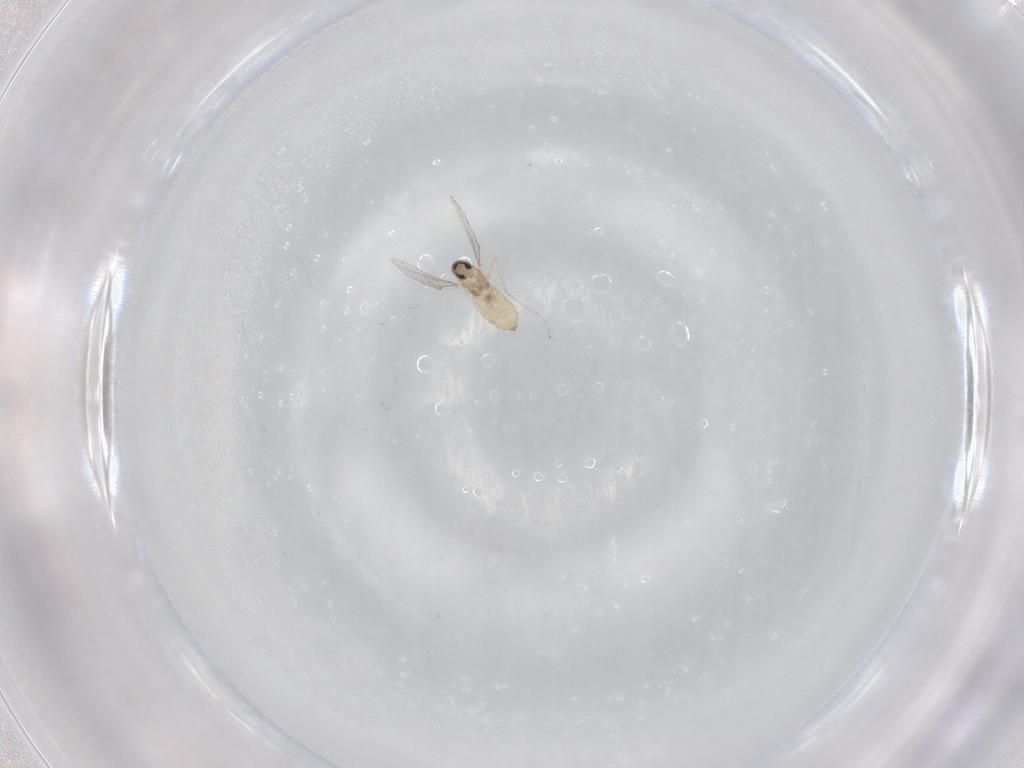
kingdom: Animalia
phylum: Arthropoda
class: Insecta
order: Diptera
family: Cecidomyiidae
